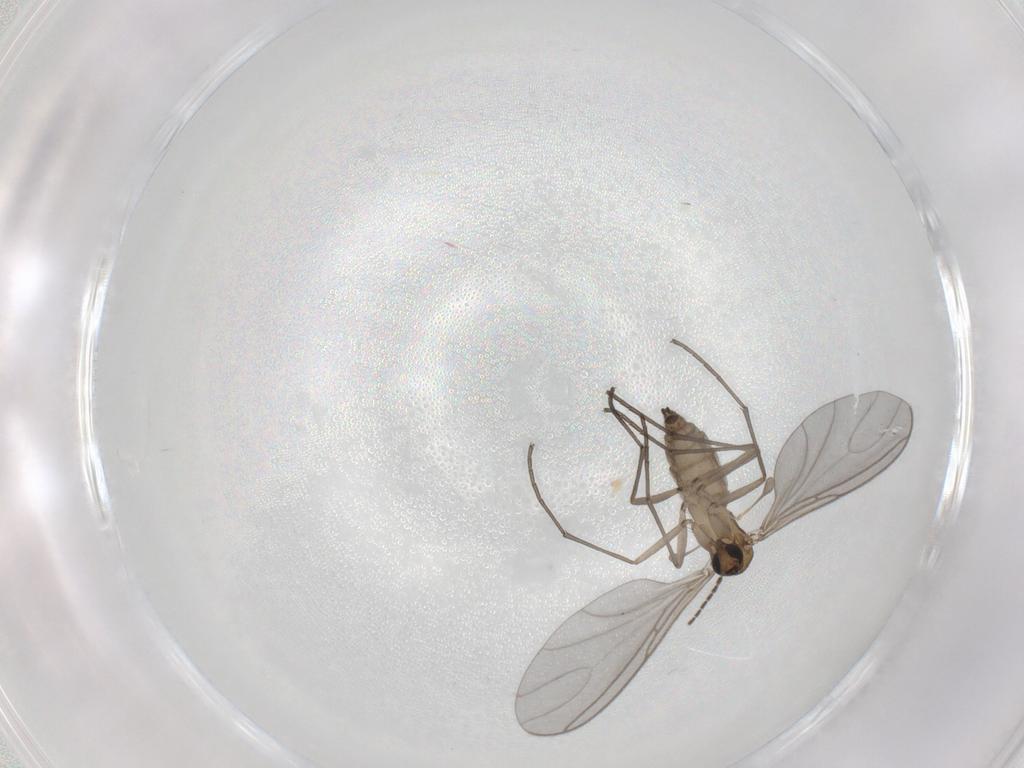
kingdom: Animalia
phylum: Arthropoda
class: Insecta
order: Diptera
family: Sciaridae
